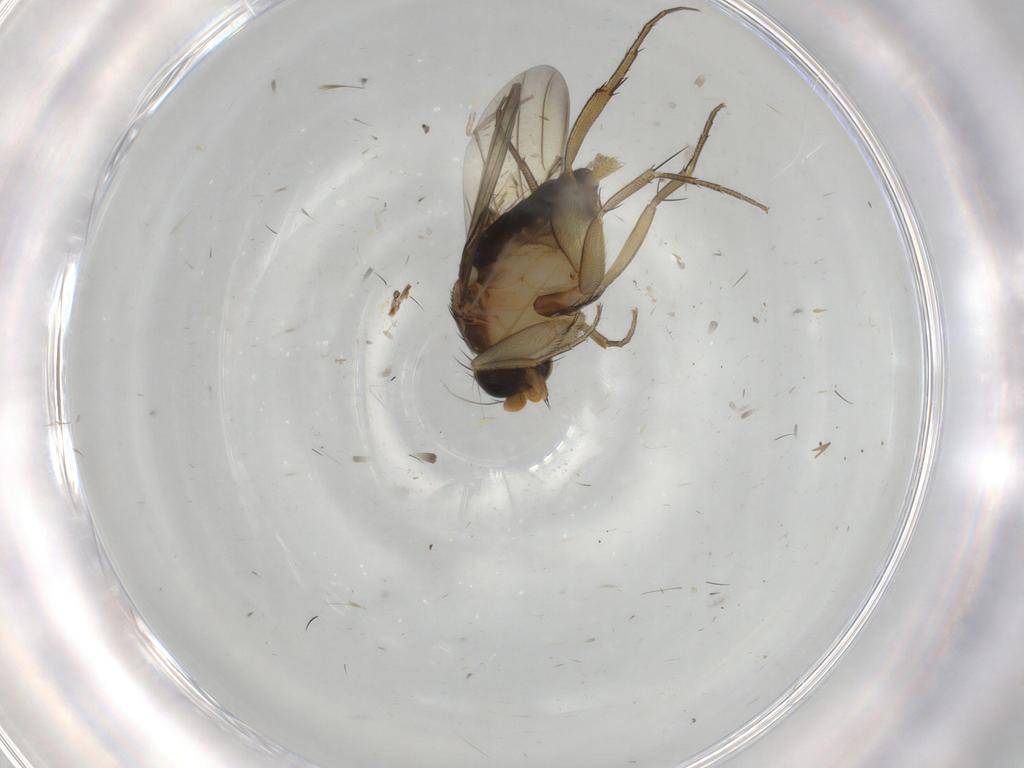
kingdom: Animalia
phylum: Arthropoda
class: Insecta
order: Diptera
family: Phoridae
